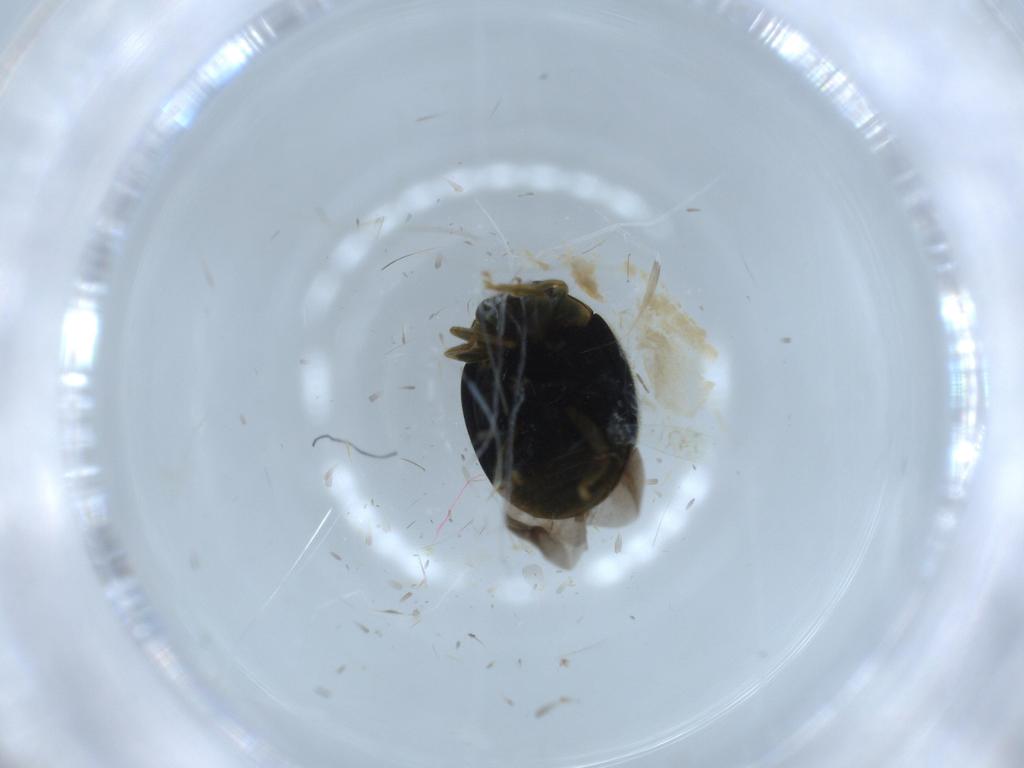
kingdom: Animalia
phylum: Arthropoda
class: Insecta
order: Coleoptera
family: Coccinellidae
